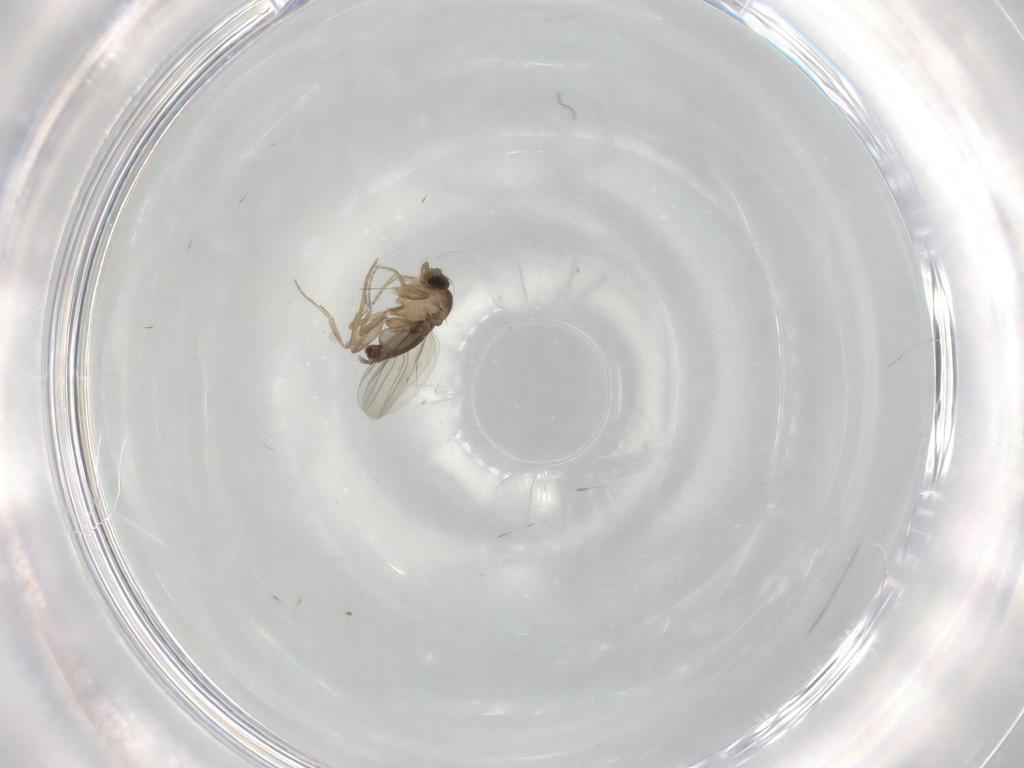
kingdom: Animalia
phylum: Arthropoda
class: Insecta
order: Diptera
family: Phoridae
